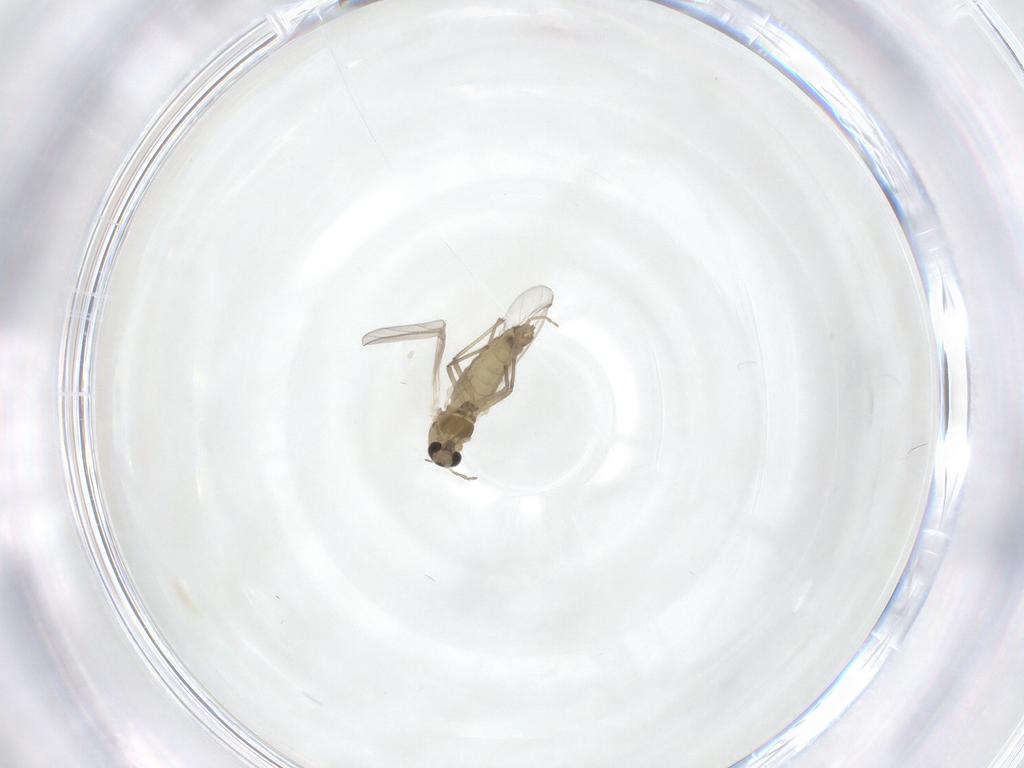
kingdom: Animalia
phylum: Arthropoda
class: Insecta
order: Diptera
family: Chironomidae
